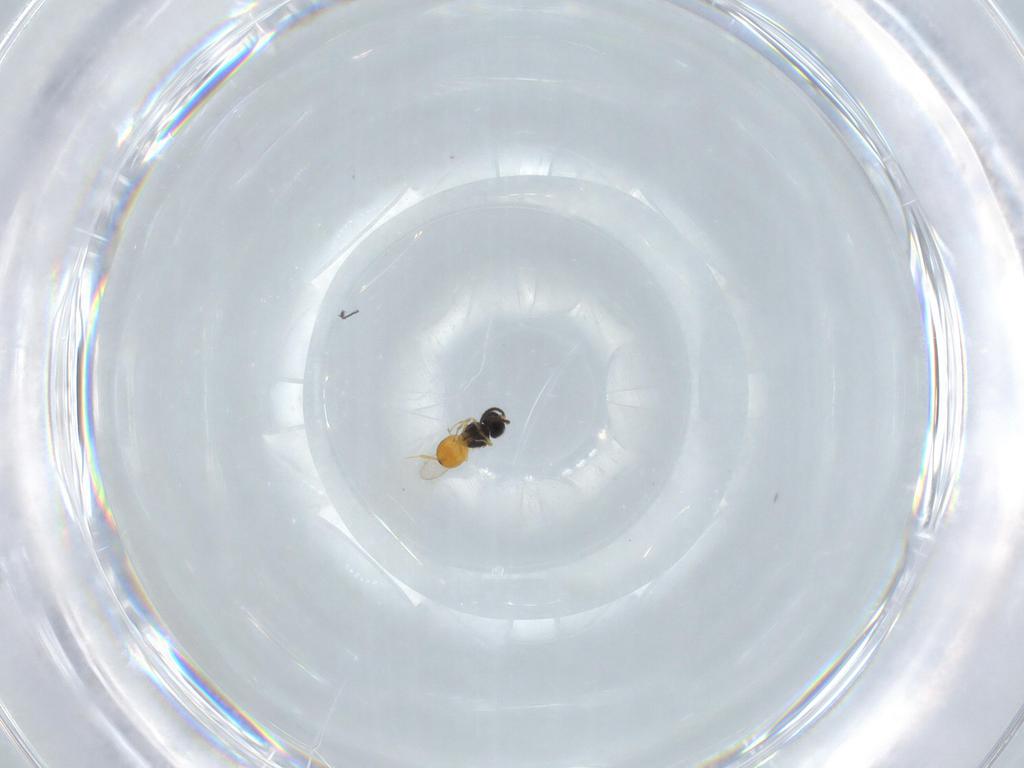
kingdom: Animalia
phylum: Arthropoda
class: Insecta
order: Hymenoptera
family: Scelionidae
